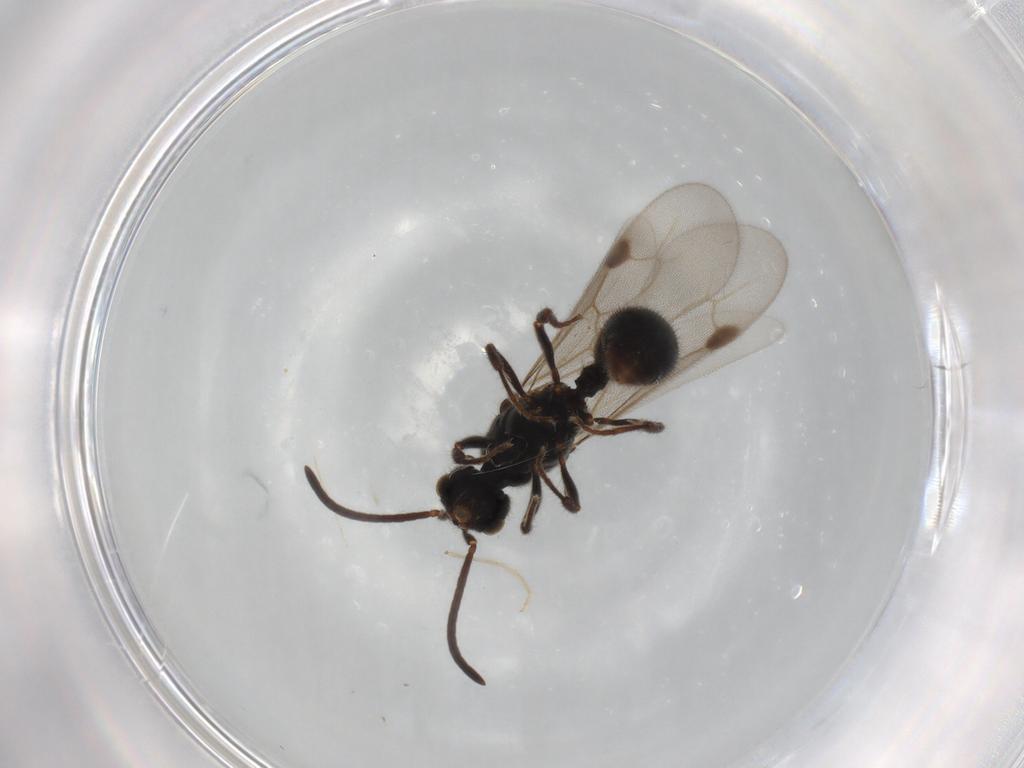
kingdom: Animalia
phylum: Arthropoda
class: Insecta
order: Hymenoptera
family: Formicidae
